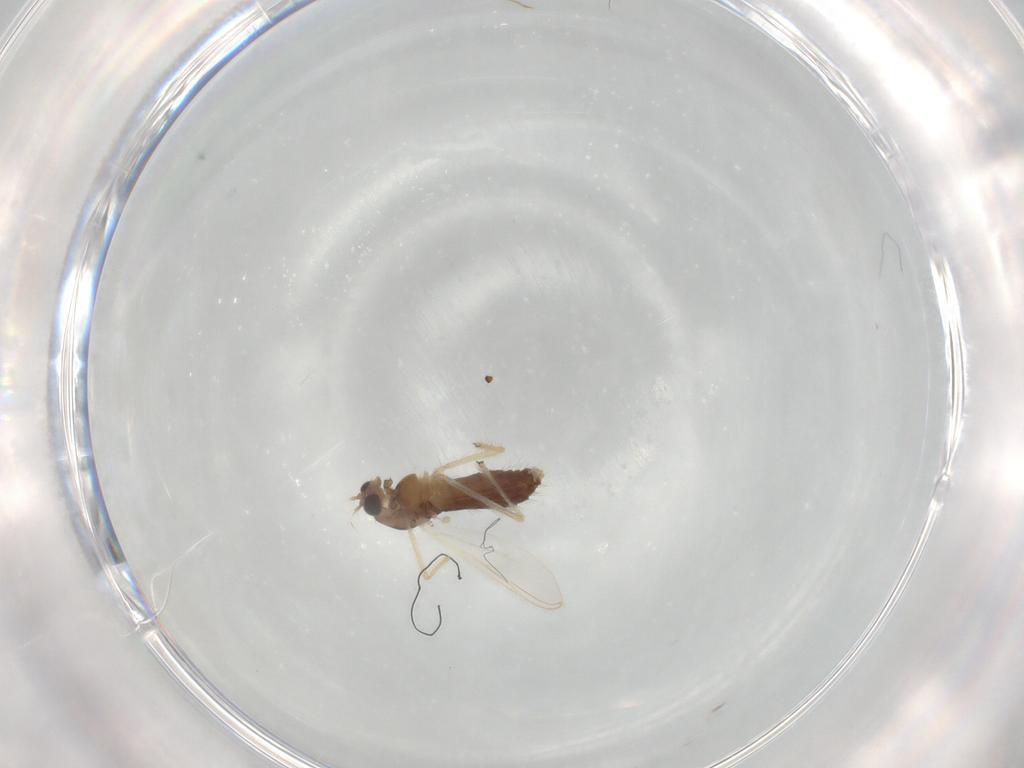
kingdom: Animalia
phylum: Arthropoda
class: Insecta
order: Diptera
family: Chironomidae
